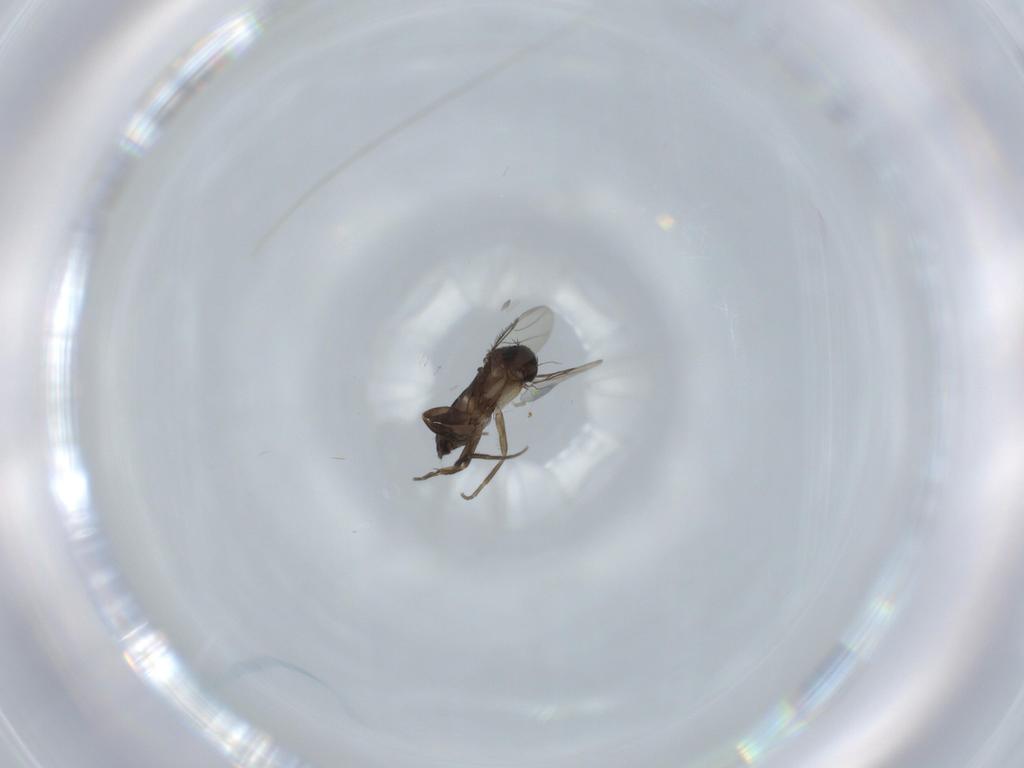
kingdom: Animalia
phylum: Arthropoda
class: Insecta
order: Diptera
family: Phoridae
